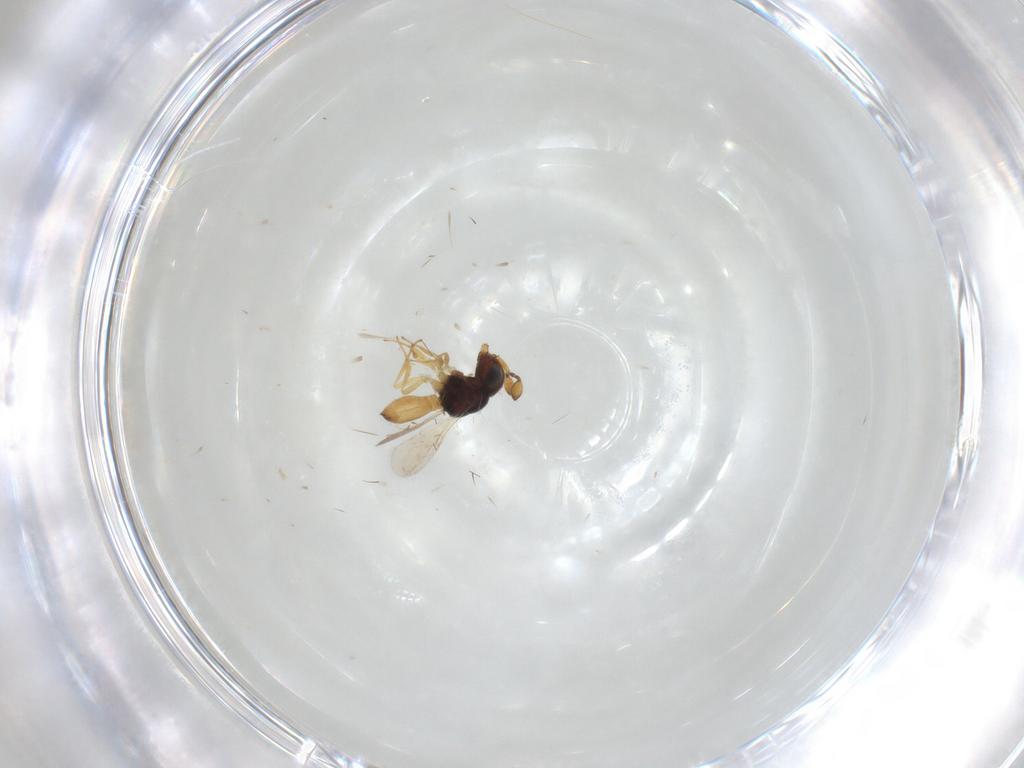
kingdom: Animalia
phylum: Arthropoda
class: Insecta
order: Hymenoptera
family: Scelionidae
